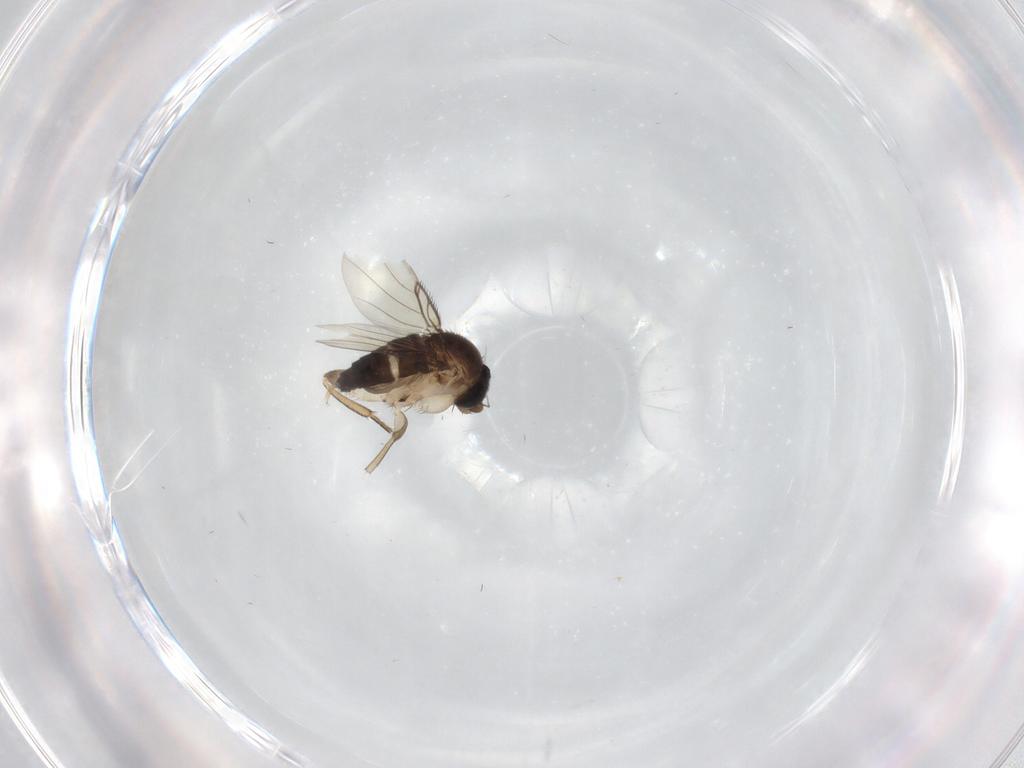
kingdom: Animalia
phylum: Arthropoda
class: Insecta
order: Diptera
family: Phoridae
